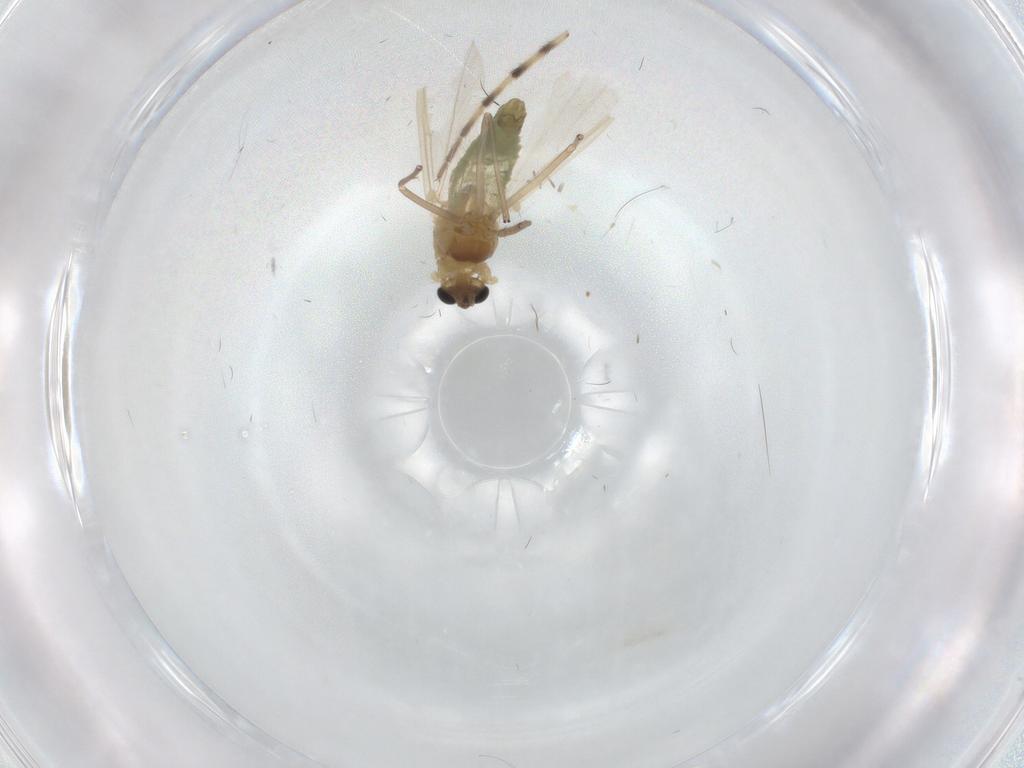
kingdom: Animalia
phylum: Arthropoda
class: Insecta
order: Diptera
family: Chironomidae
